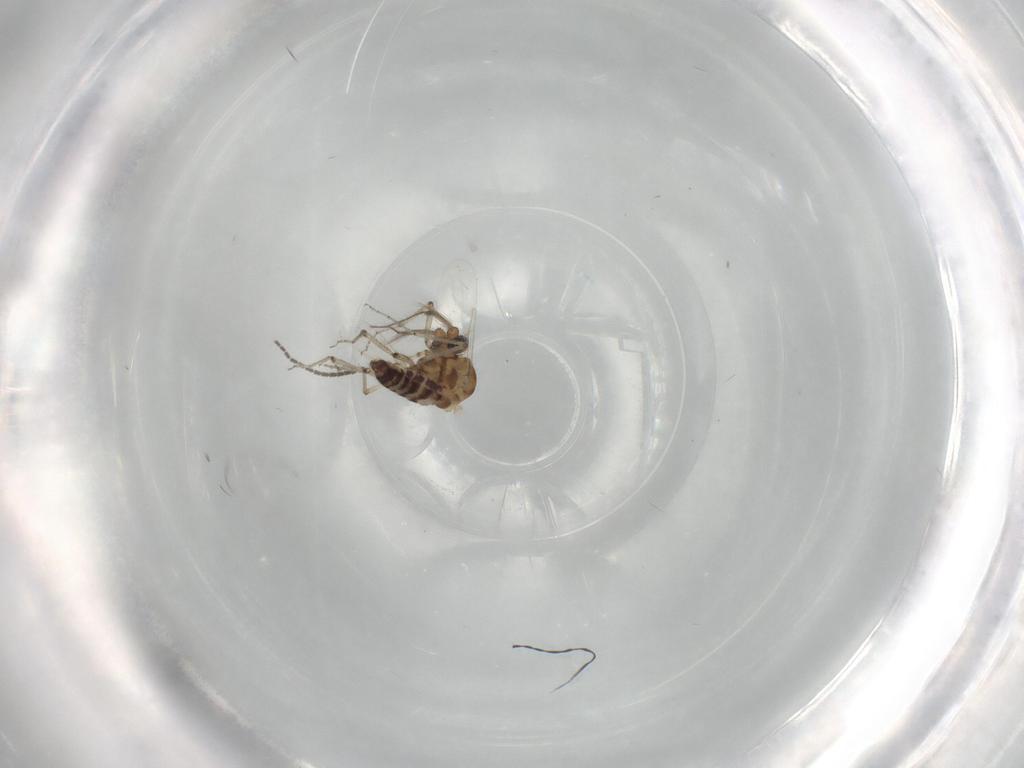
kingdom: Animalia
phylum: Arthropoda
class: Insecta
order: Diptera
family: Ceratopogonidae
